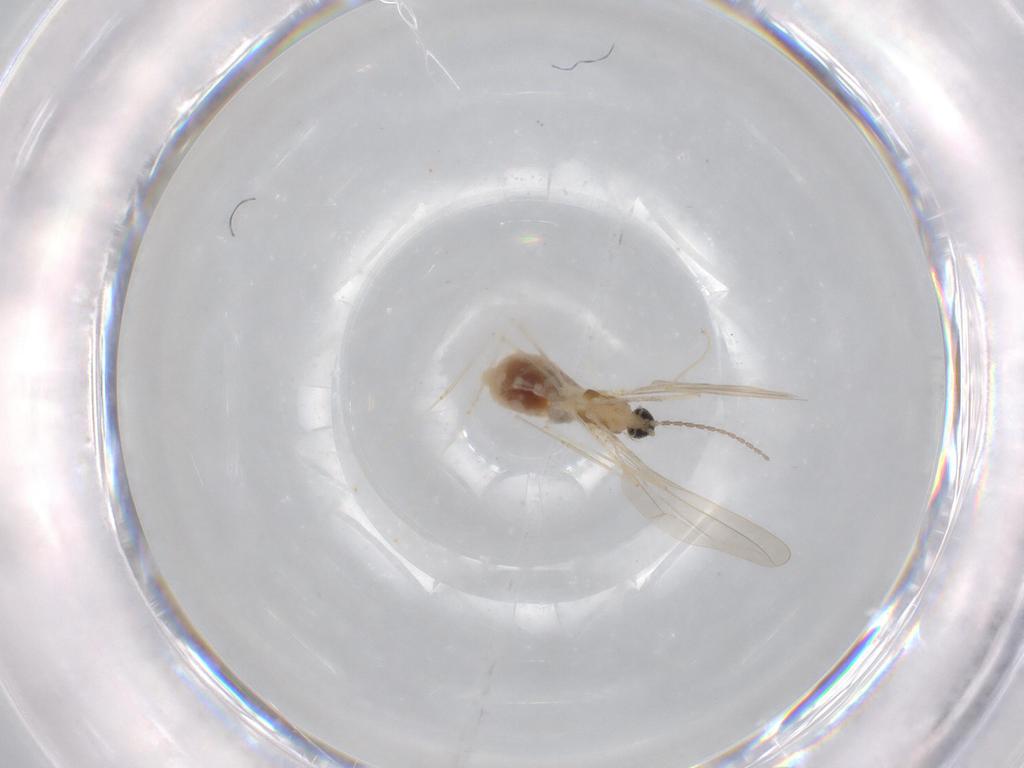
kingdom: Animalia
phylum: Arthropoda
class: Insecta
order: Diptera
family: Cecidomyiidae
